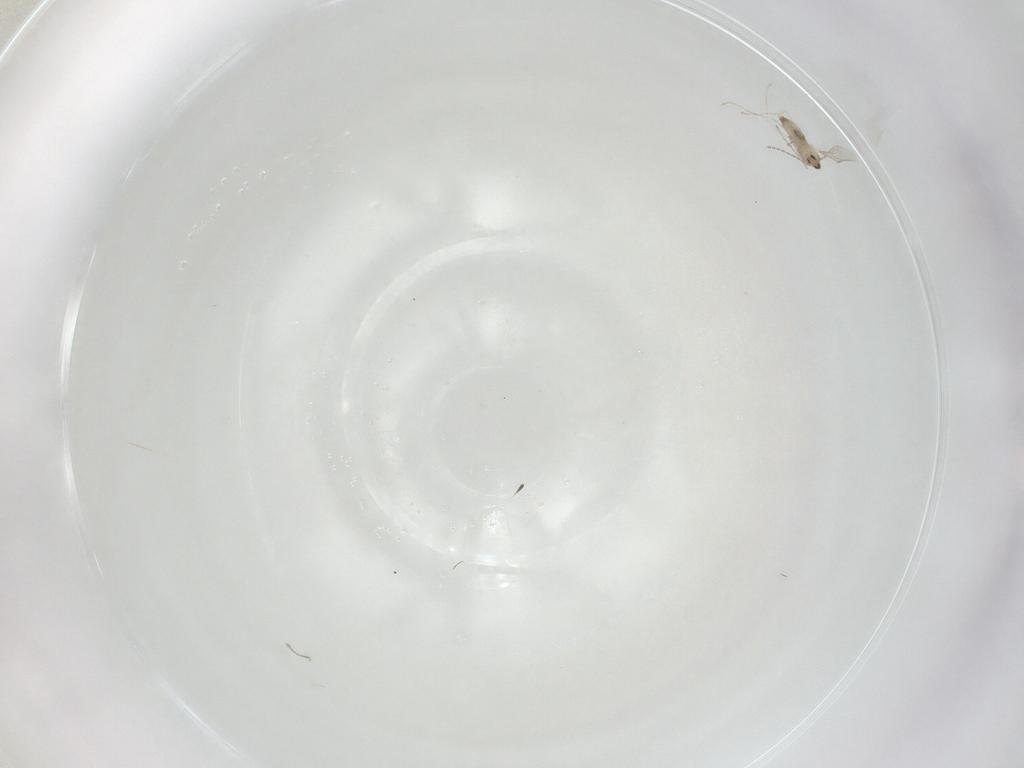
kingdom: Animalia
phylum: Arthropoda
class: Insecta
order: Diptera
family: Cecidomyiidae
